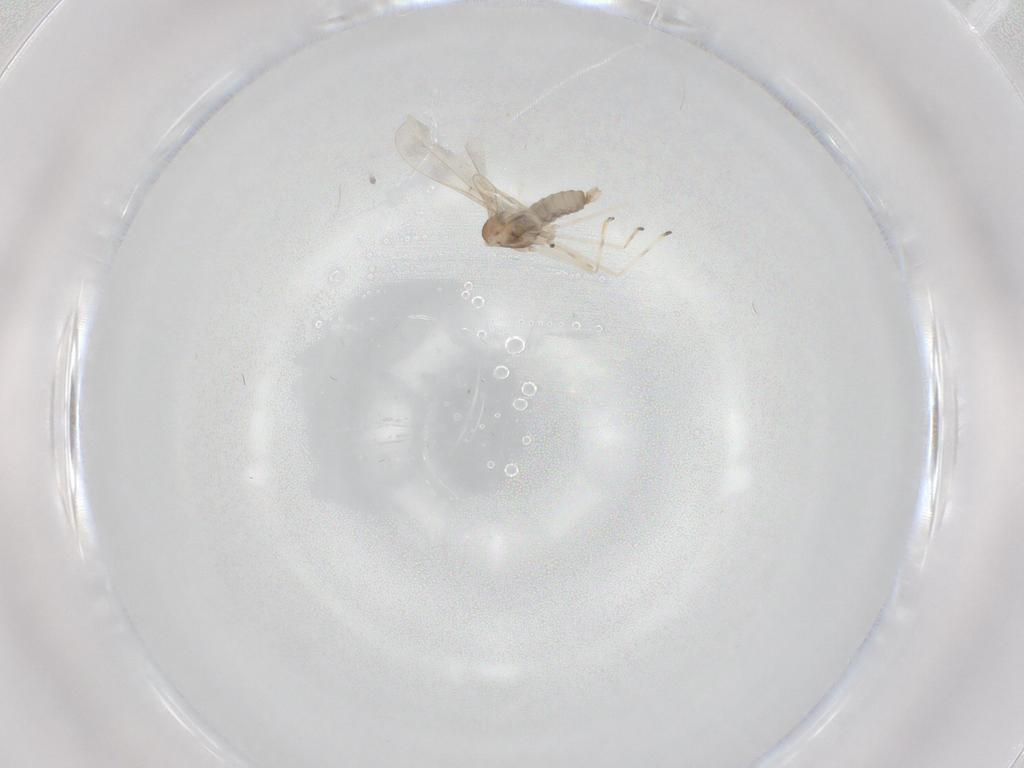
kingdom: Animalia
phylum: Arthropoda
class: Insecta
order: Diptera
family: Cecidomyiidae
